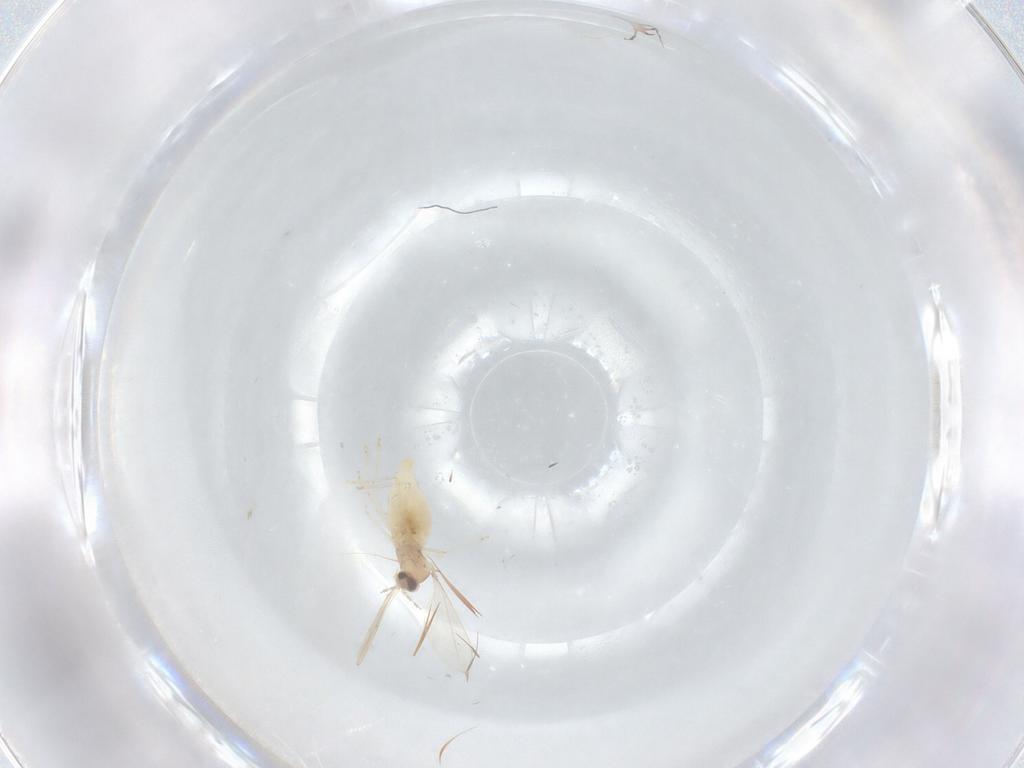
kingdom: Animalia
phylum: Arthropoda
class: Insecta
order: Diptera
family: Cecidomyiidae
